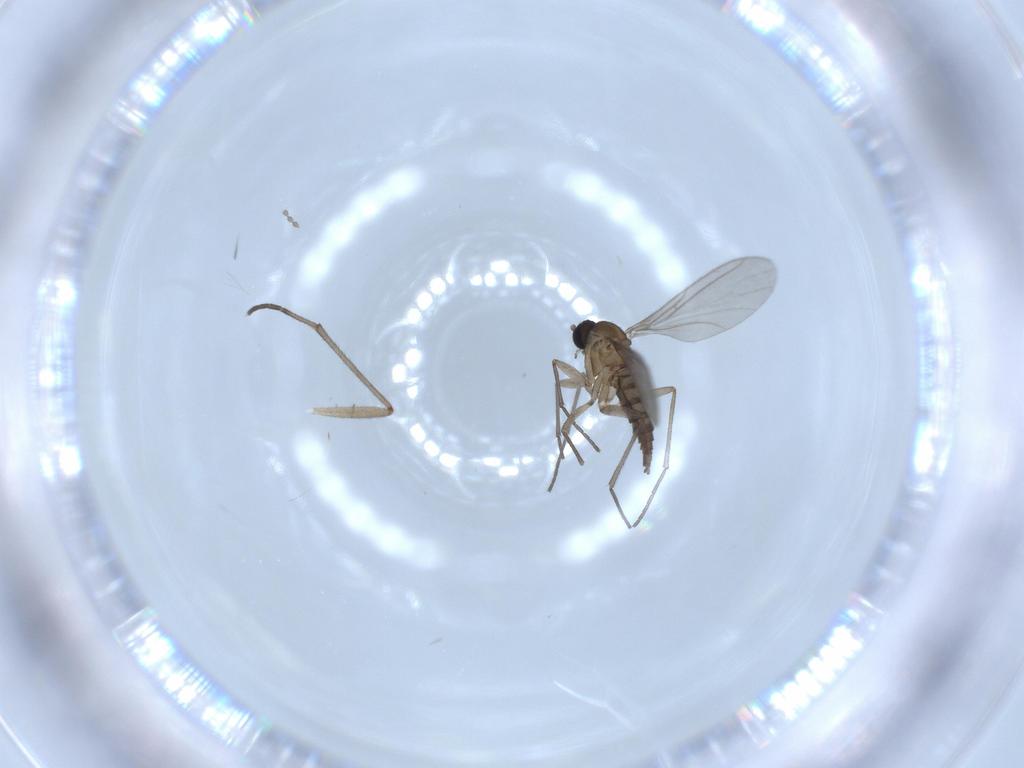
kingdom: Animalia
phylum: Arthropoda
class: Insecta
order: Diptera
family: Cecidomyiidae
